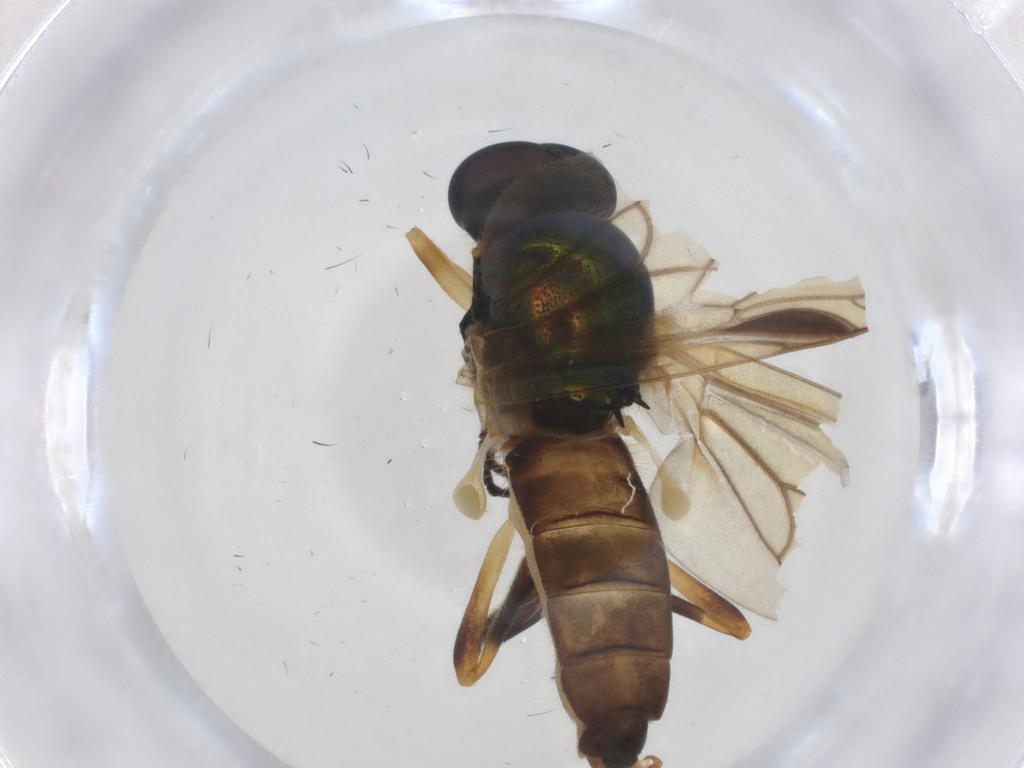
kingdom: Animalia
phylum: Arthropoda
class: Insecta
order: Diptera
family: Stratiomyidae
